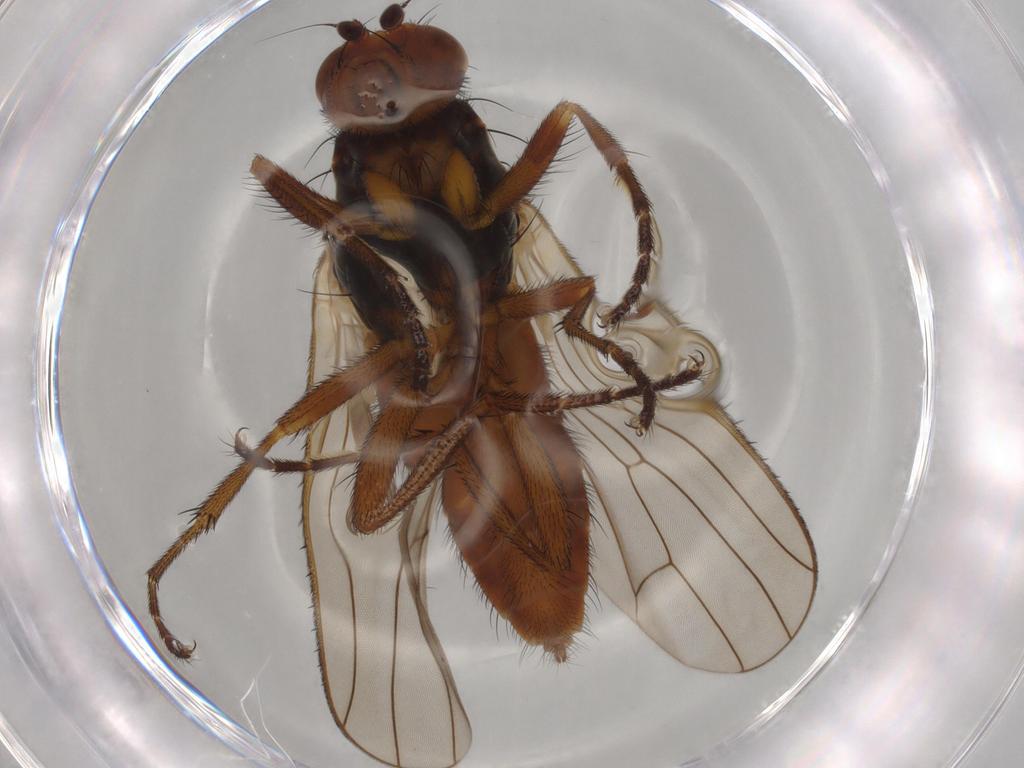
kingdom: Animalia
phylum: Arthropoda
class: Insecta
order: Diptera
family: Heleomyzidae
